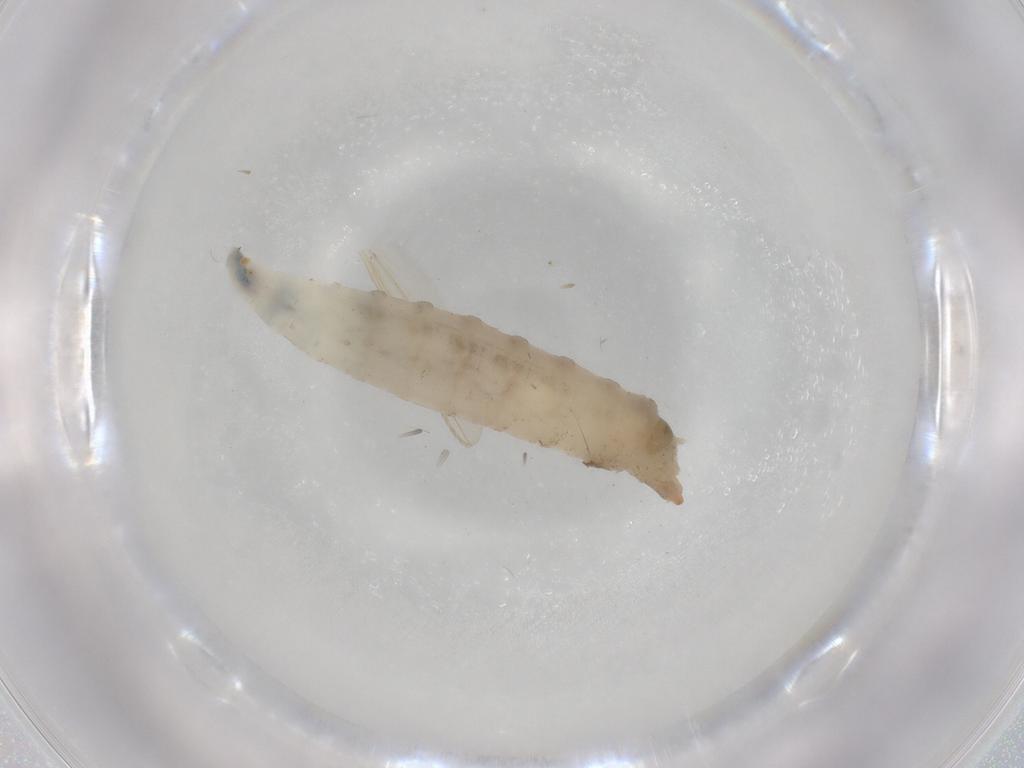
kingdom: Animalia
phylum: Arthropoda
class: Insecta
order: Diptera
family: Drosophilidae
